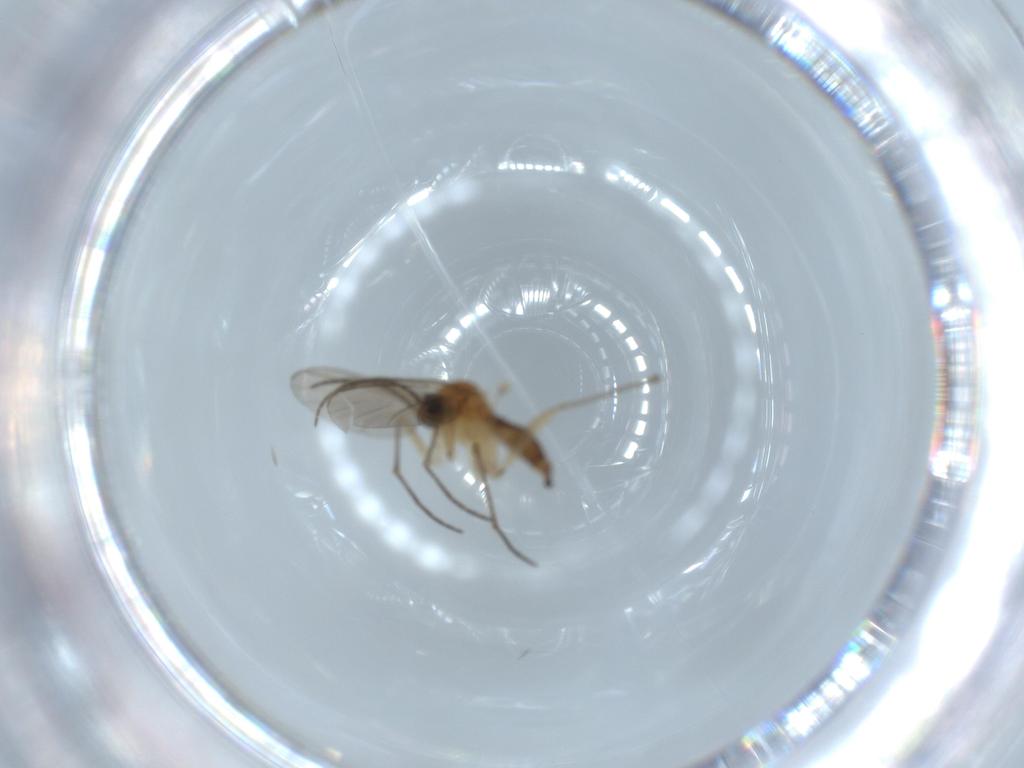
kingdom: Animalia
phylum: Arthropoda
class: Insecta
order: Diptera
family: Sciaridae
